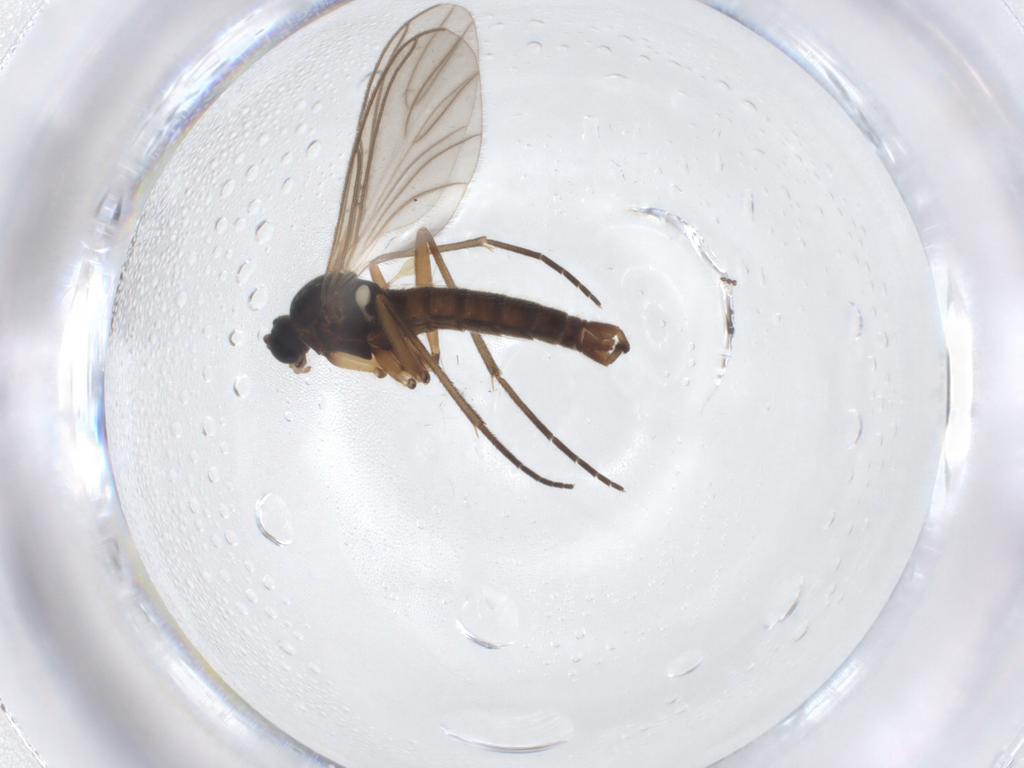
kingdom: Animalia
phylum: Arthropoda
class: Insecta
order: Diptera
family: Sciaridae
